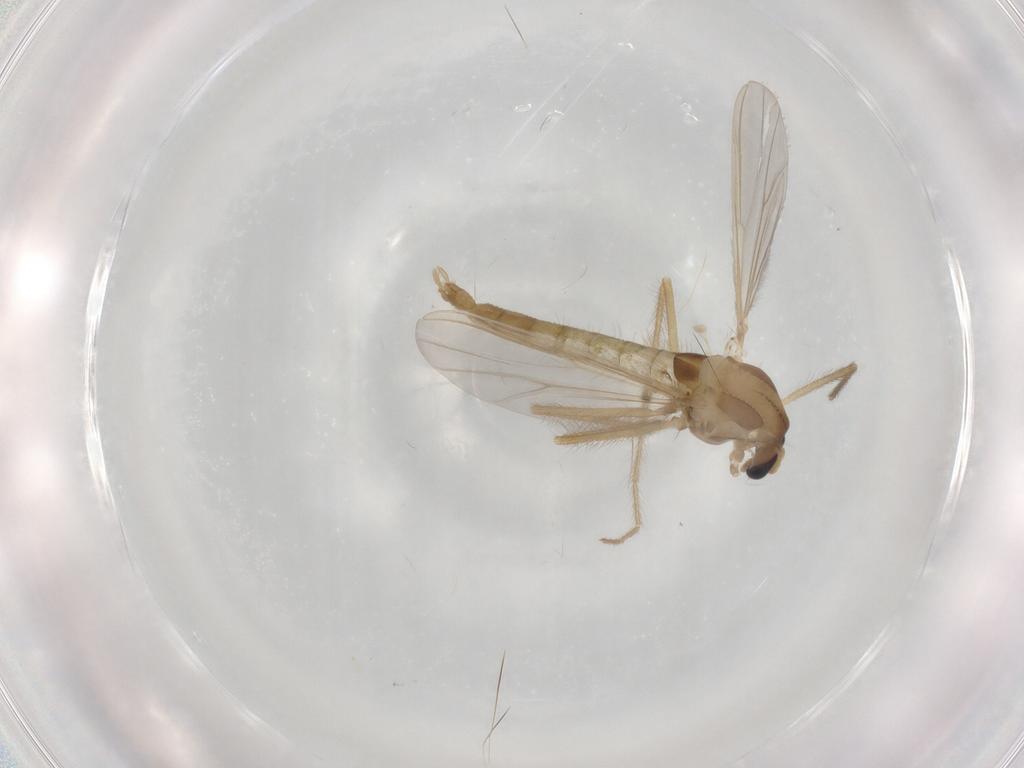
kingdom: Animalia
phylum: Arthropoda
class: Insecta
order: Diptera
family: Chironomidae
